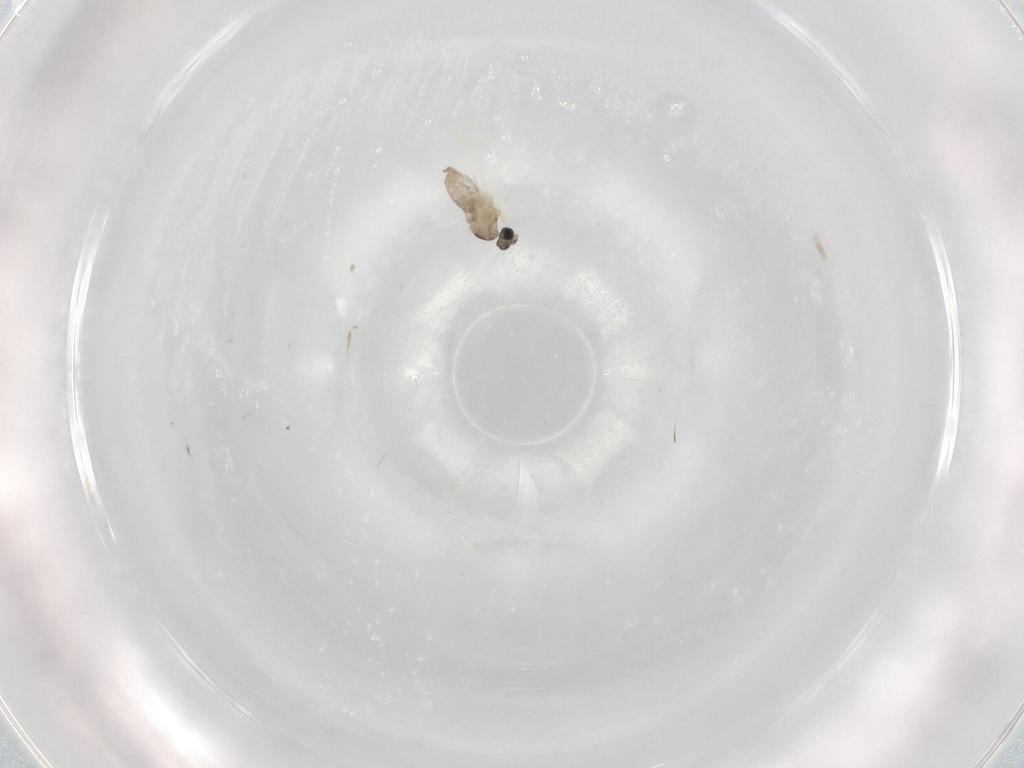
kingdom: Animalia
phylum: Arthropoda
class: Insecta
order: Diptera
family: Cecidomyiidae
